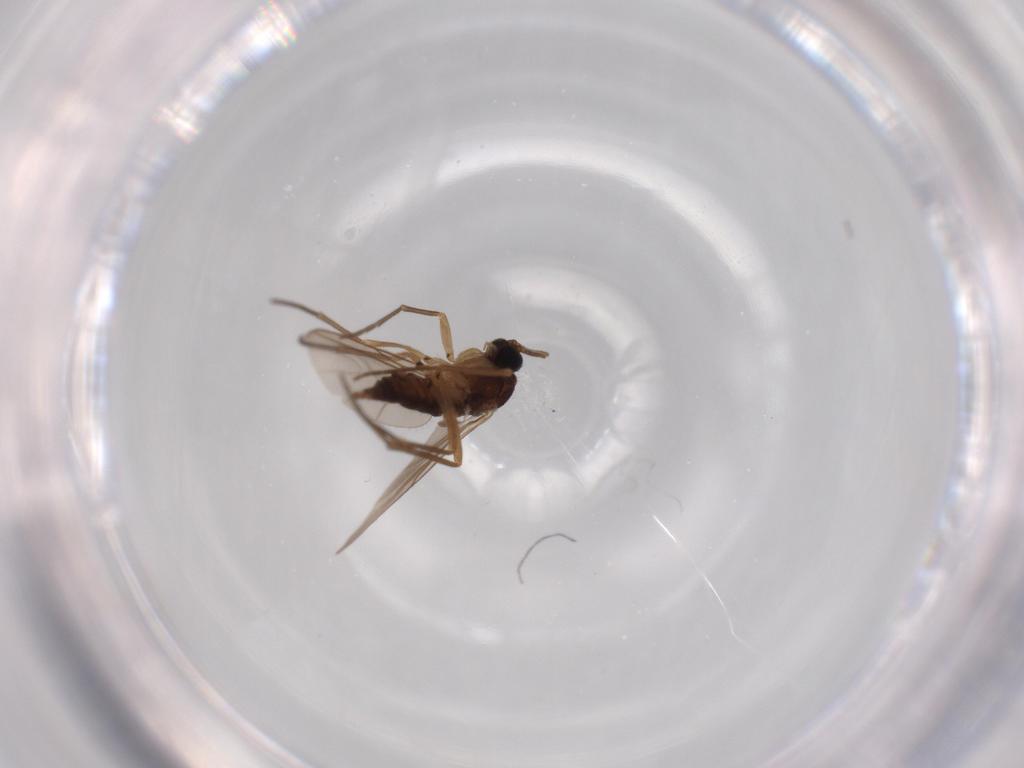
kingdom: Animalia
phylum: Arthropoda
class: Insecta
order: Diptera
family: Sciaridae
